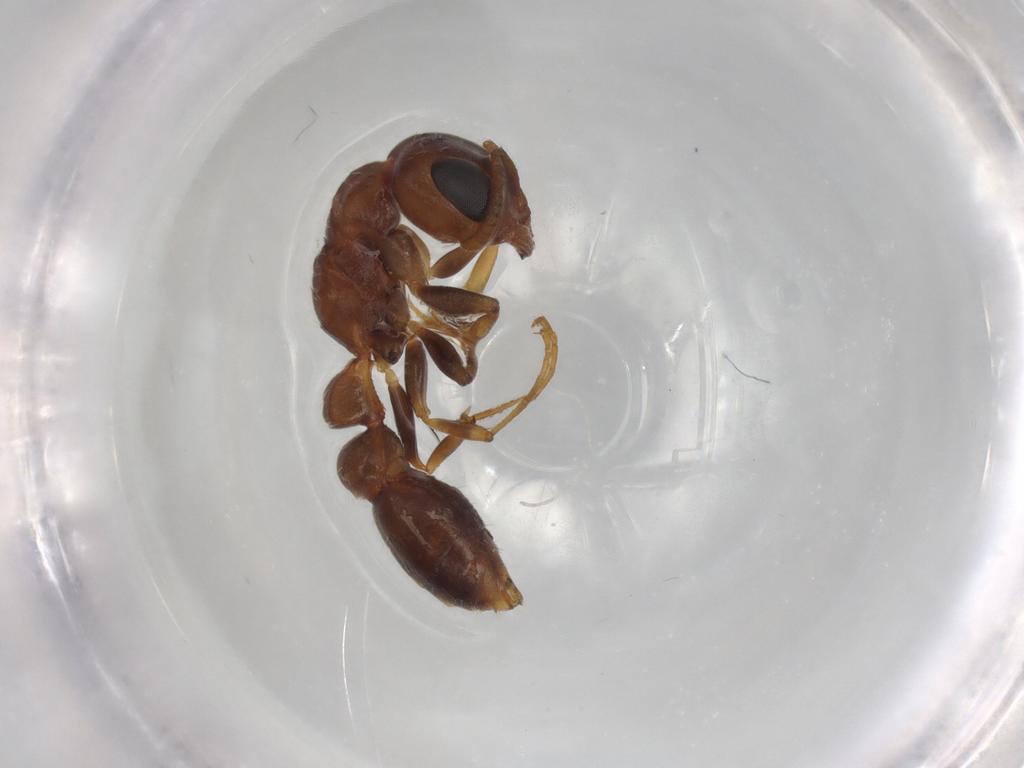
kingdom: Animalia
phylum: Arthropoda
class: Insecta
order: Hymenoptera
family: Formicidae
